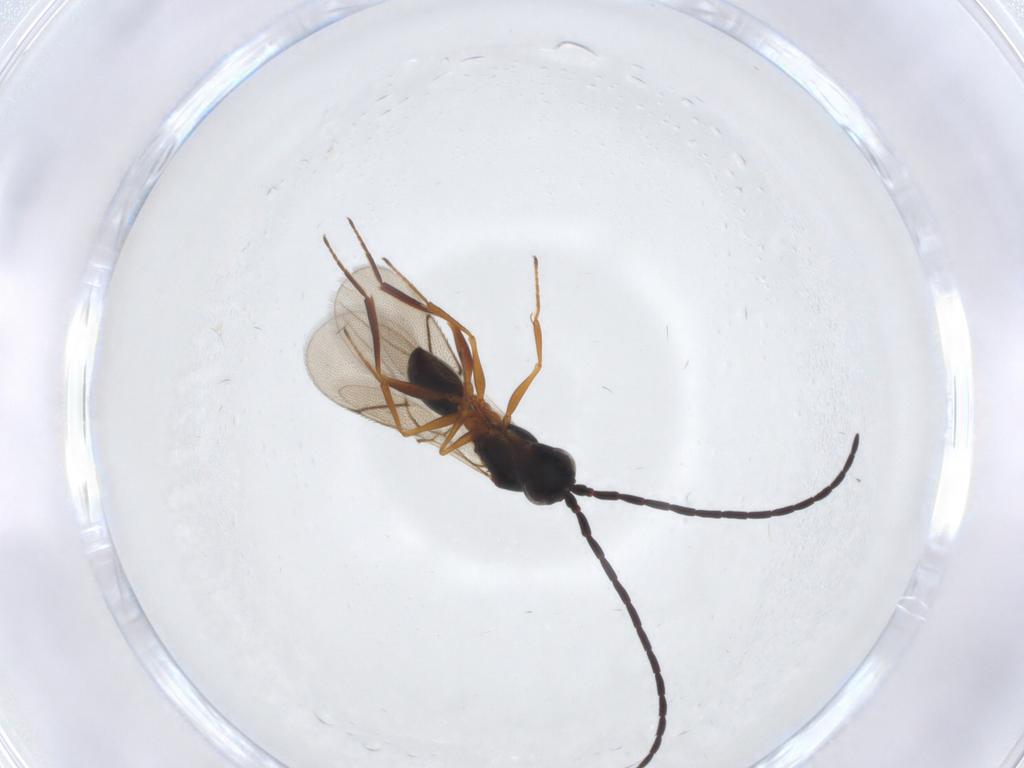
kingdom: Animalia
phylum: Arthropoda
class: Insecta
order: Hymenoptera
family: Figitidae
